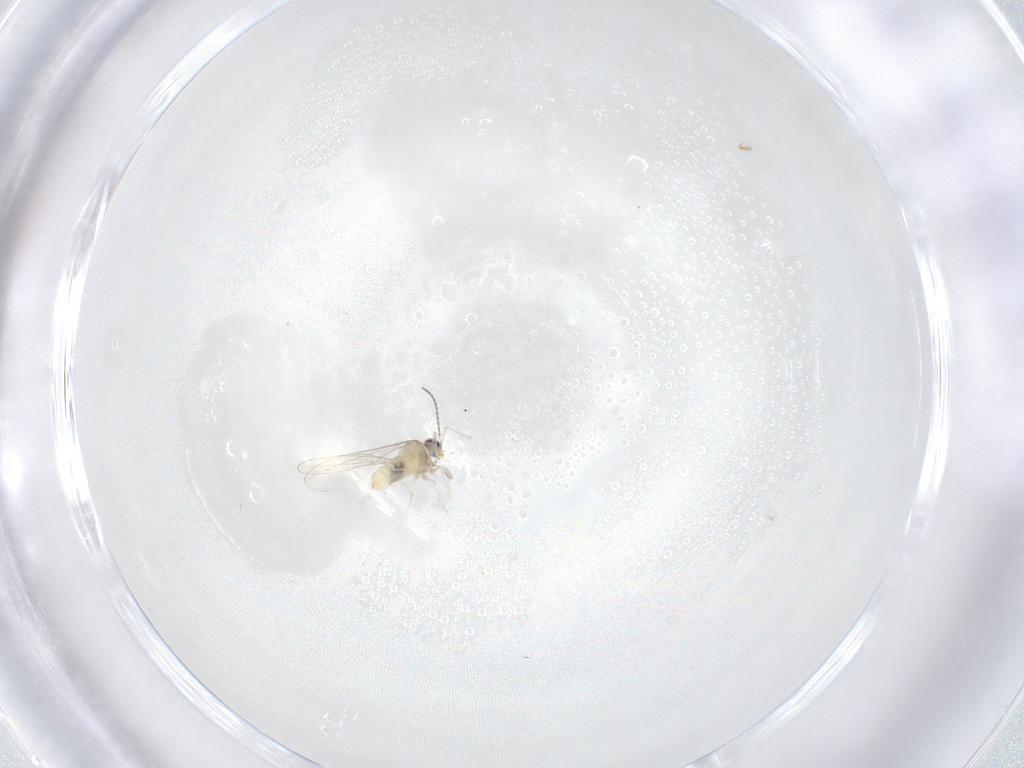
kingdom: Animalia
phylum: Arthropoda
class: Insecta
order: Diptera
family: Cecidomyiidae
